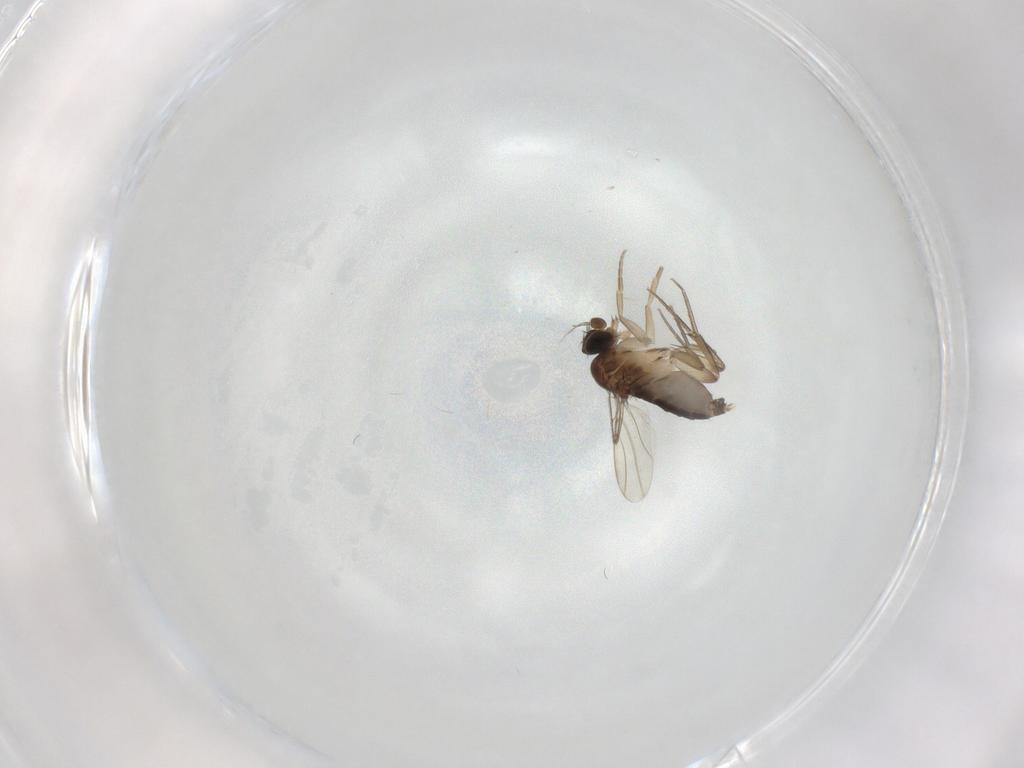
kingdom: Animalia
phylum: Arthropoda
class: Insecta
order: Diptera
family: Phoridae
